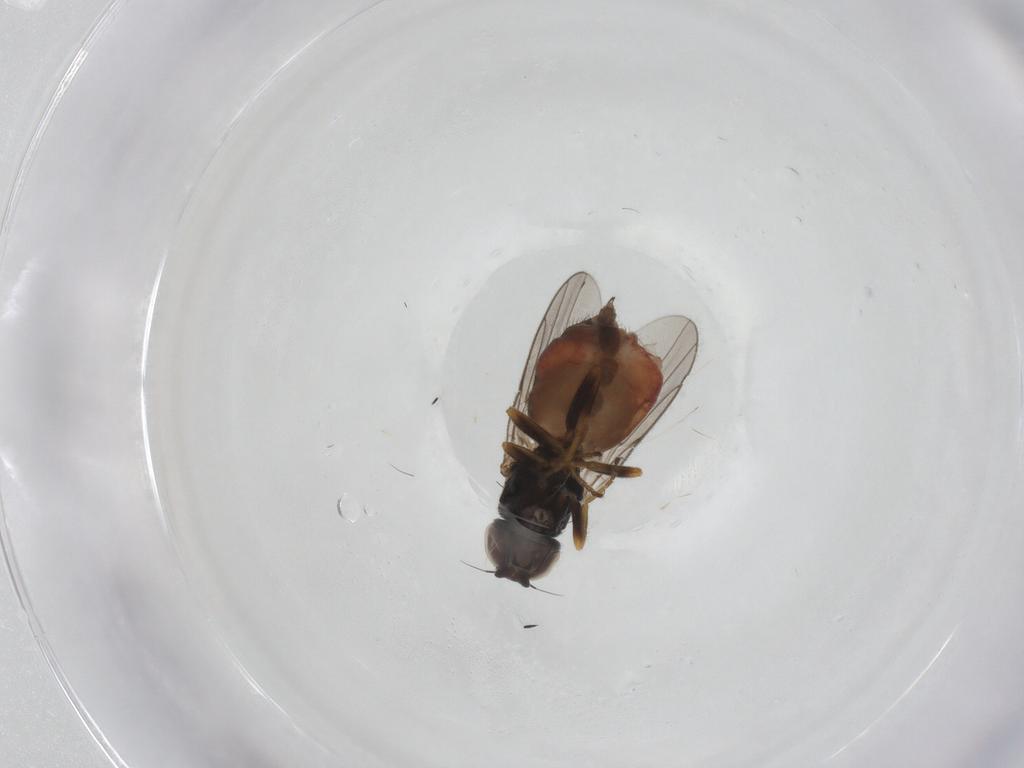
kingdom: Animalia
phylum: Arthropoda
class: Insecta
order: Diptera
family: Chloropidae
